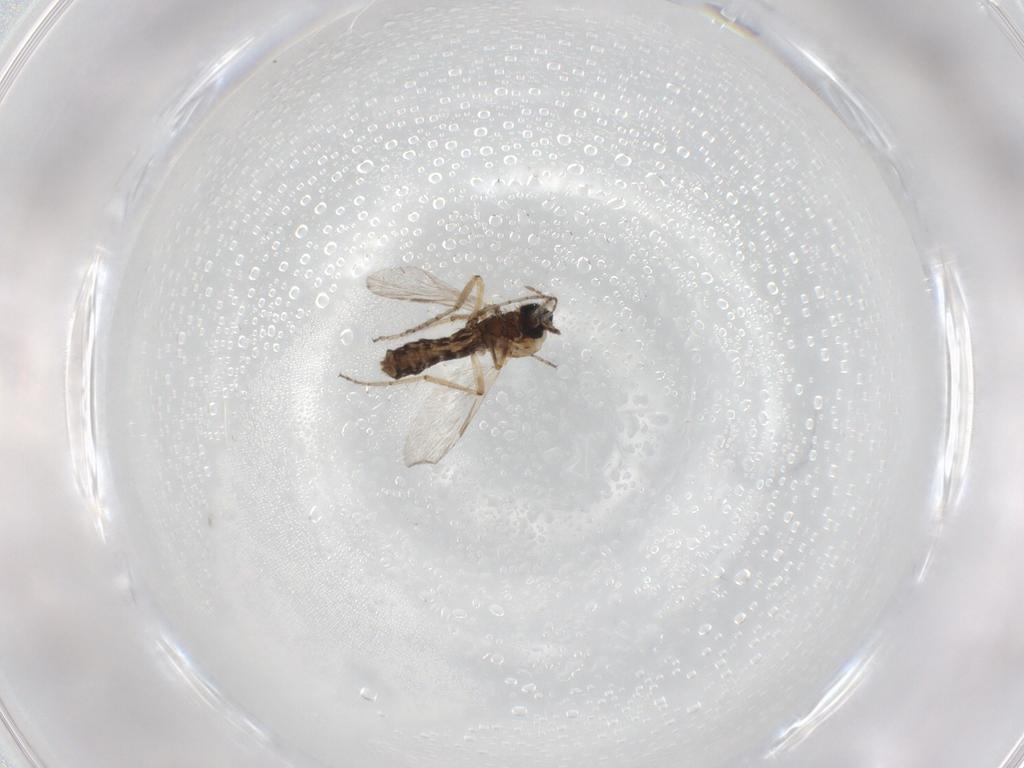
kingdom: Animalia
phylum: Arthropoda
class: Insecta
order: Diptera
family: Ceratopogonidae
